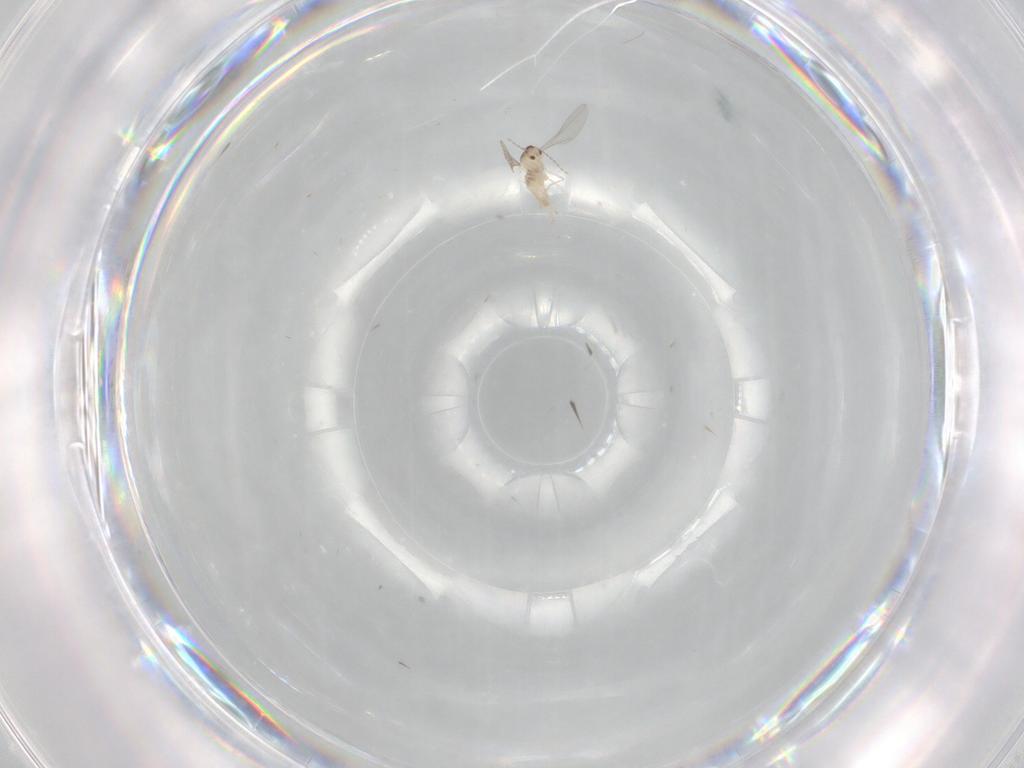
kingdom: Animalia
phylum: Arthropoda
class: Insecta
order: Diptera
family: Cecidomyiidae
